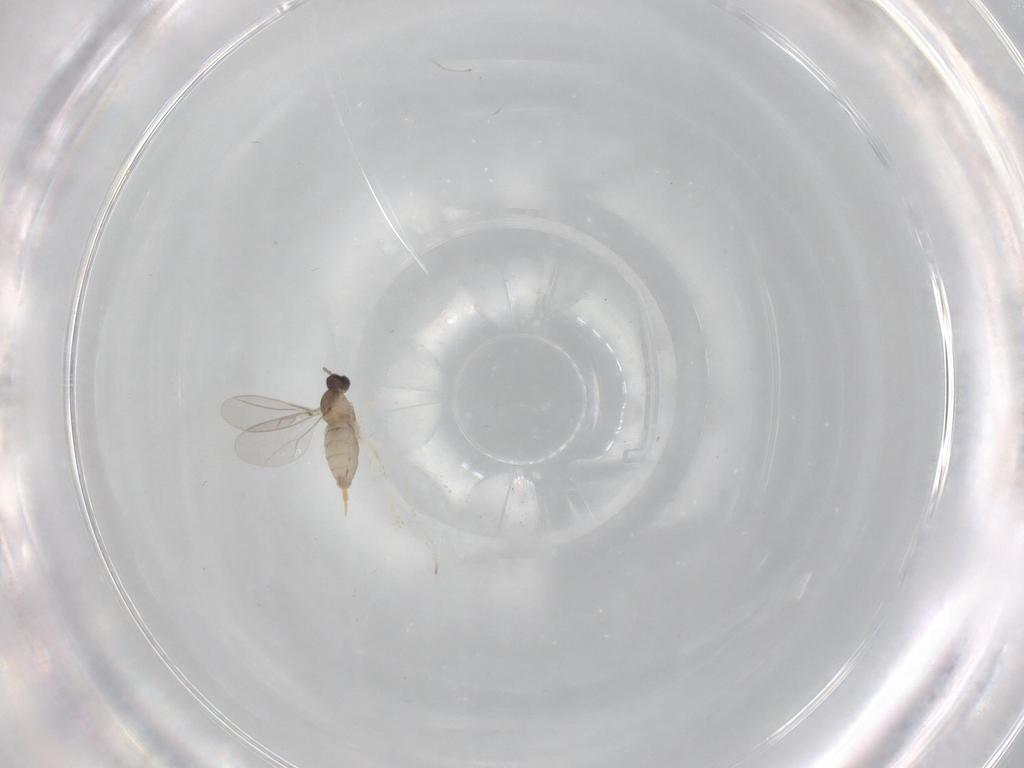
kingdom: Animalia
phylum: Arthropoda
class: Insecta
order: Diptera
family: Cecidomyiidae
